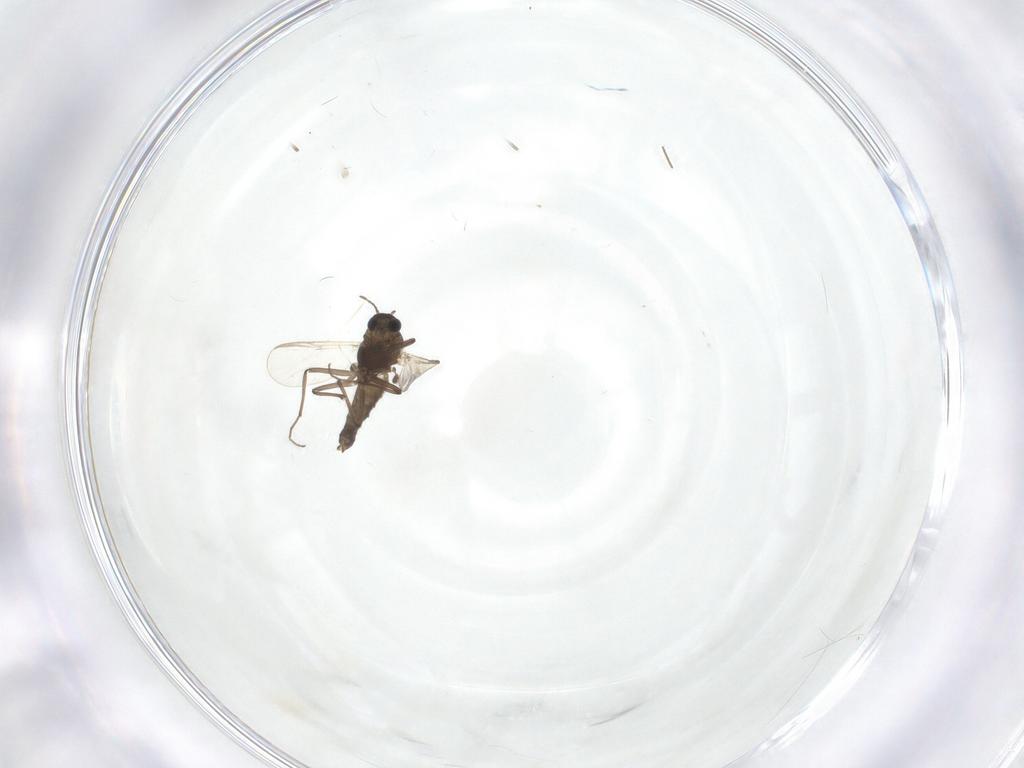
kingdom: Animalia
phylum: Arthropoda
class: Insecta
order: Diptera
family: Chironomidae
